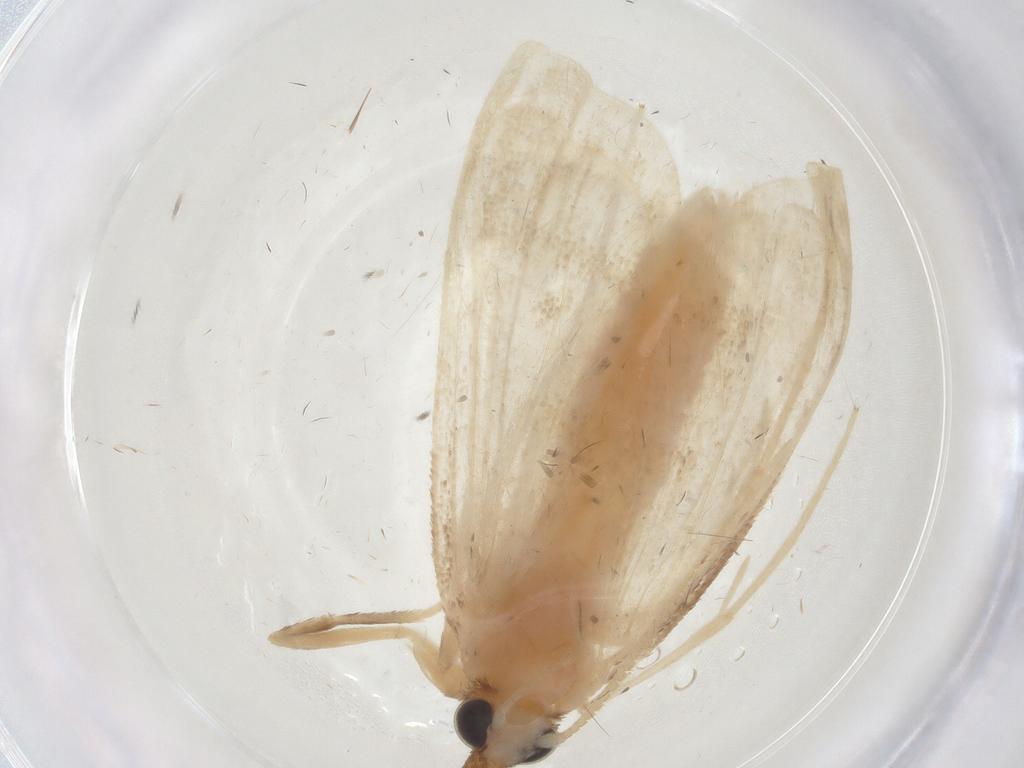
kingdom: Animalia
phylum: Arthropoda
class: Insecta
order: Lepidoptera
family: Crambidae
